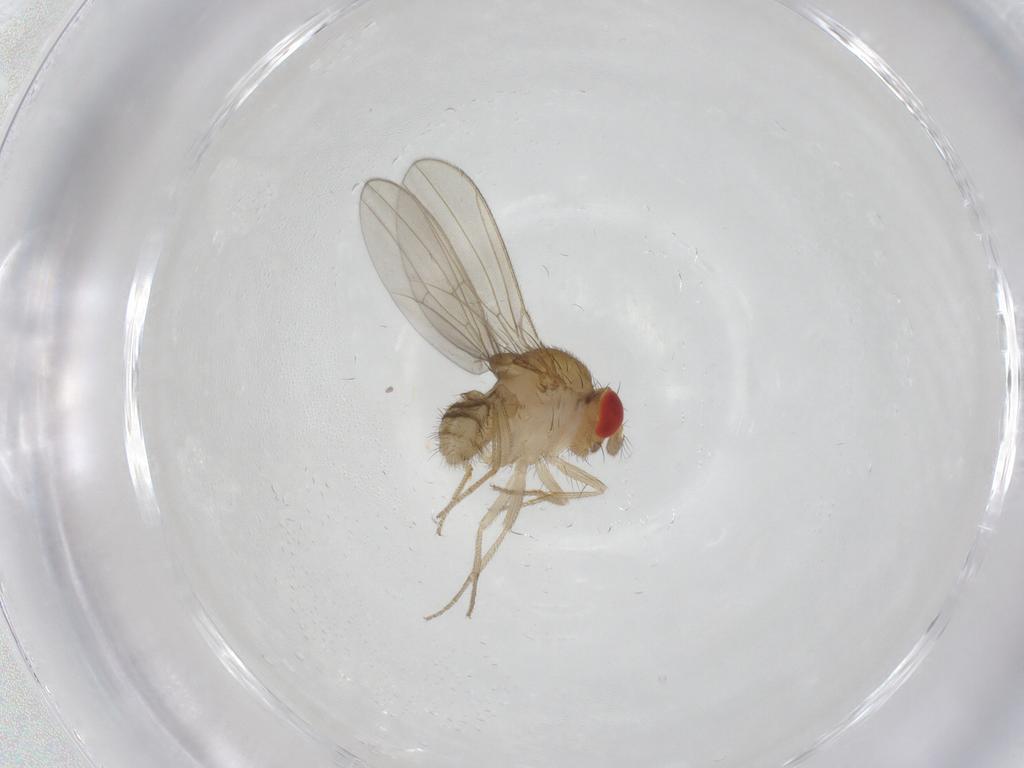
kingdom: Animalia
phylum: Arthropoda
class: Insecta
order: Diptera
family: Drosophilidae
